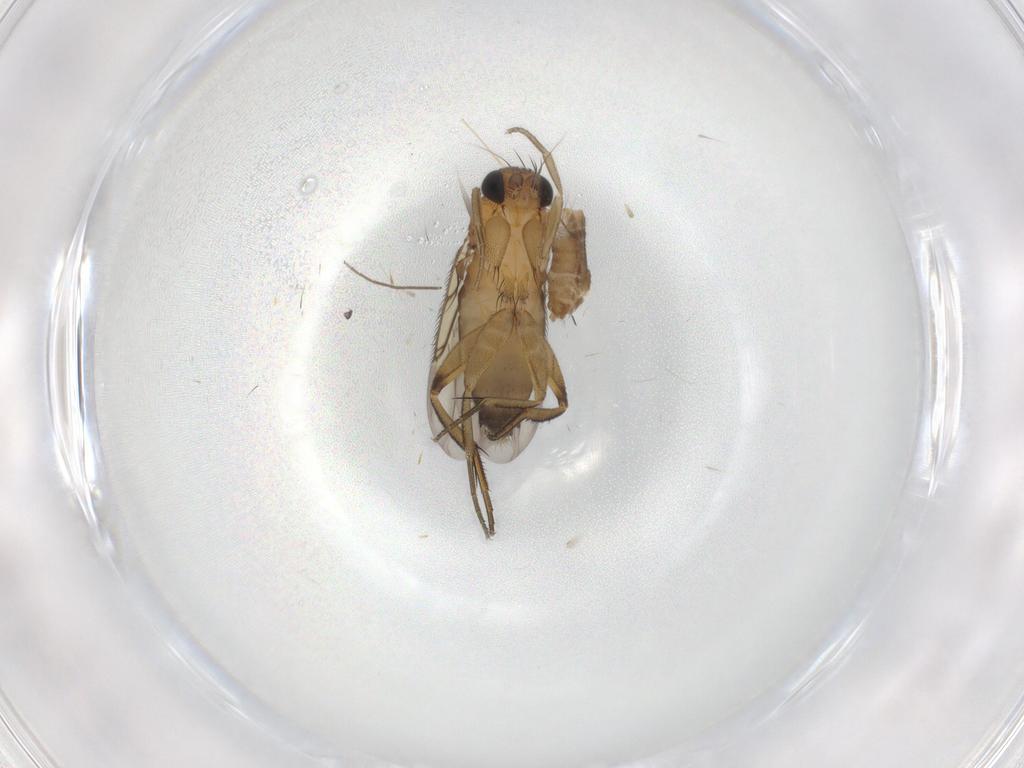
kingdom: Animalia
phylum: Arthropoda
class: Insecta
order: Diptera
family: Chironomidae
